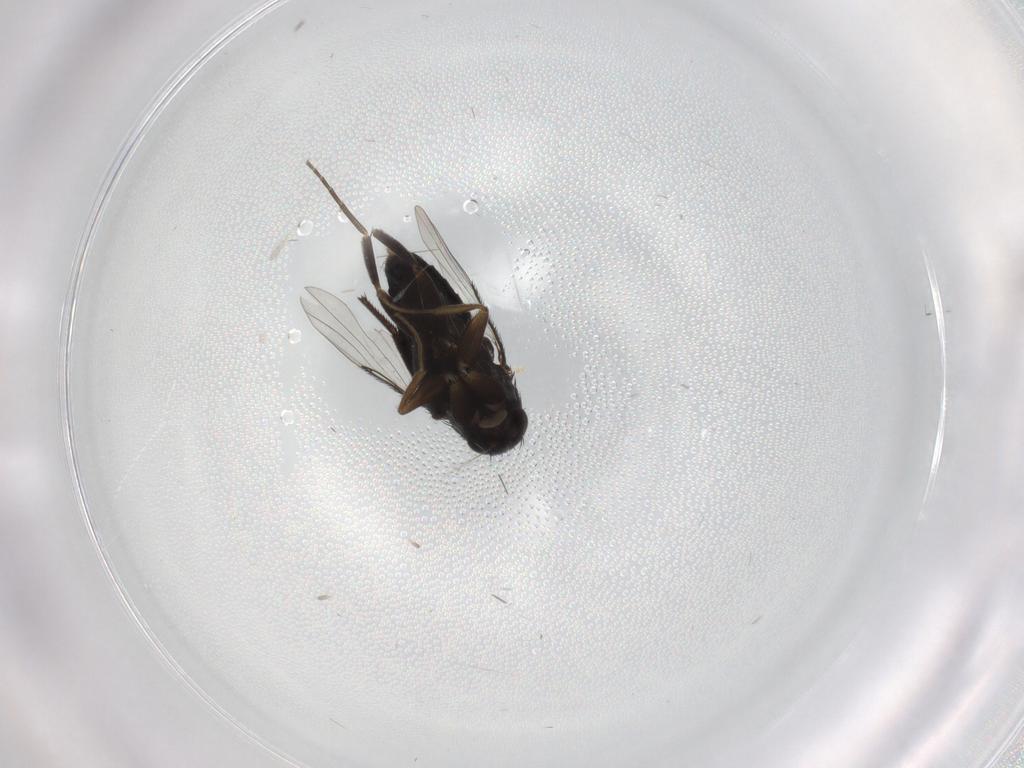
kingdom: Animalia
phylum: Arthropoda
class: Insecta
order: Diptera
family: Phoridae
